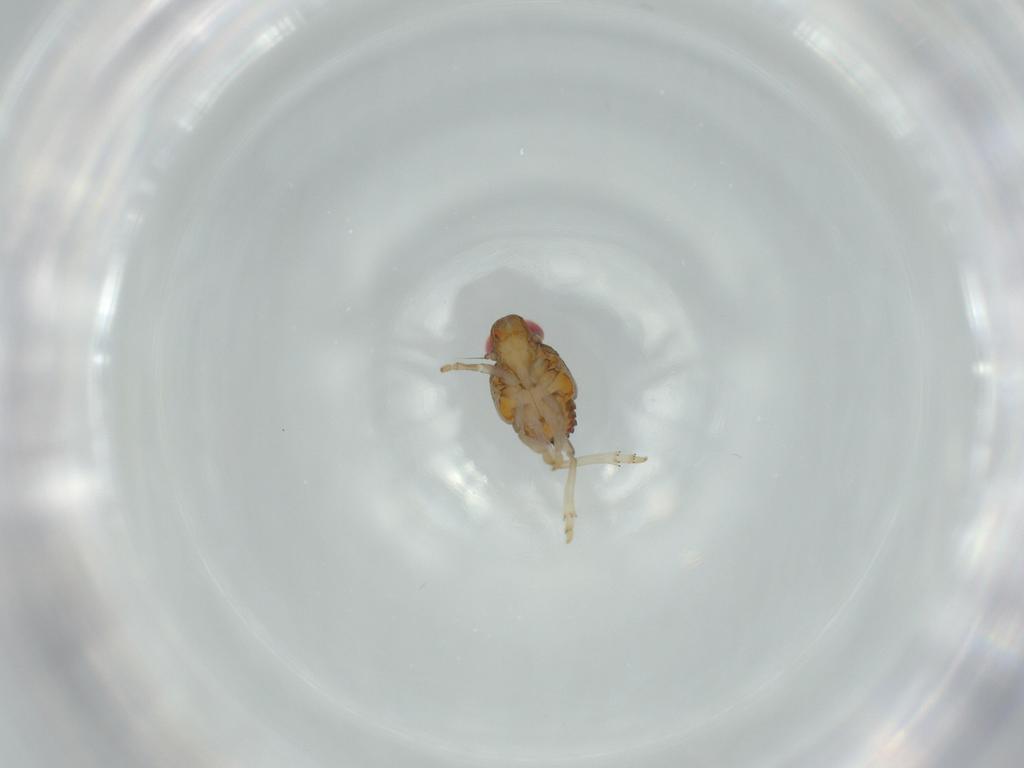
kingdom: Animalia
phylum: Arthropoda
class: Insecta
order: Hemiptera
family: Issidae
